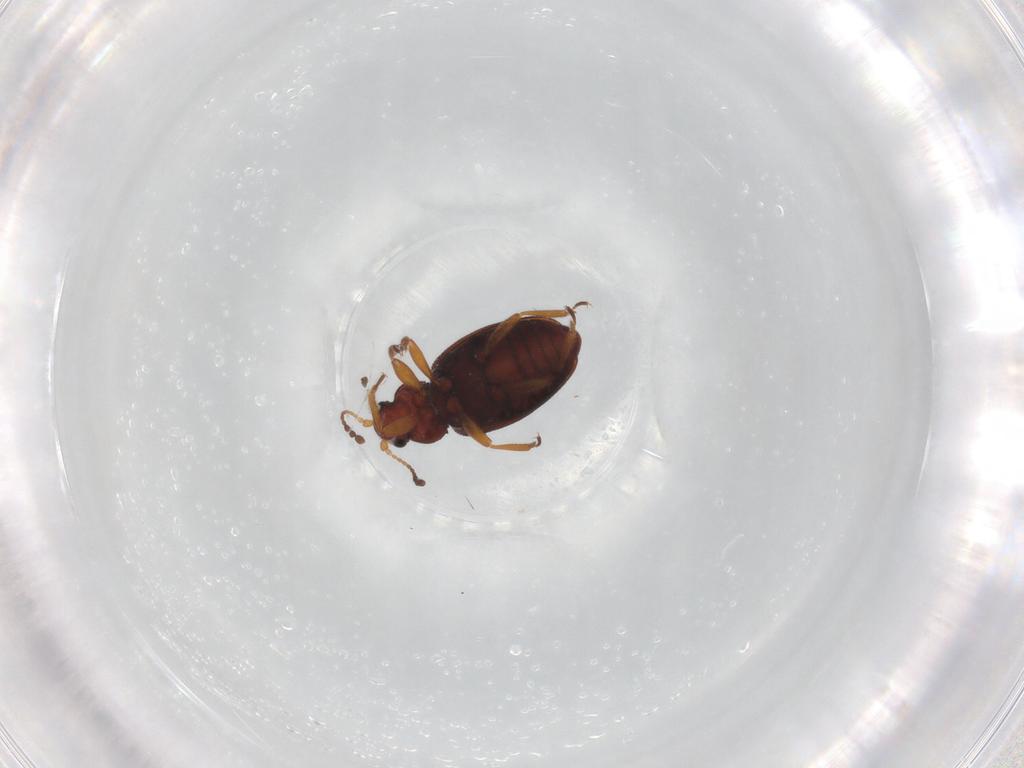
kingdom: Animalia
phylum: Arthropoda
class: Insecta
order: Coleoptera
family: Latridiidae
